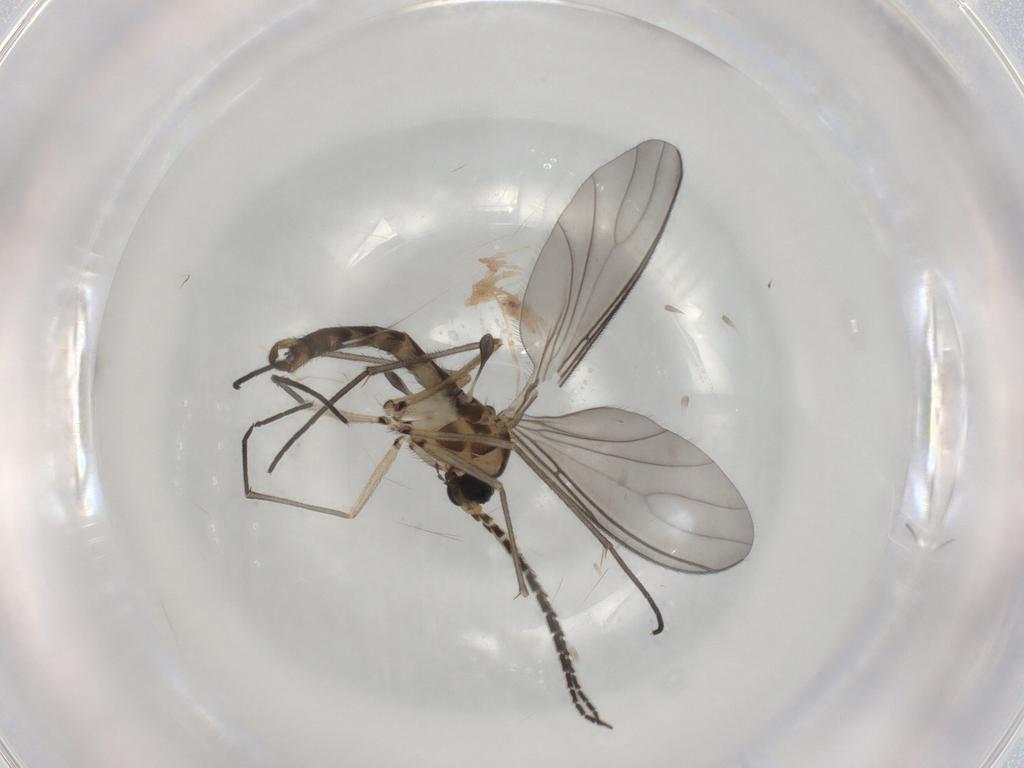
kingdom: Animalia
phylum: Arthropoda
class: Insecta
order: Diptera
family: Sciaridae
